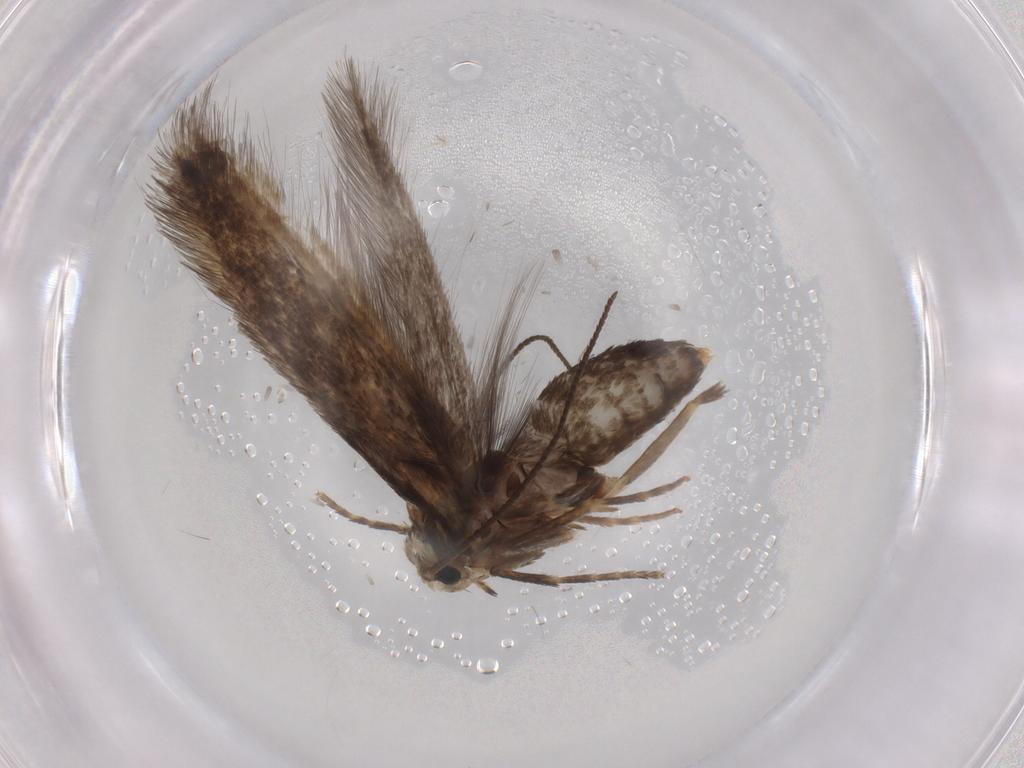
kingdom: Animalia
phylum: Arthropoda
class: Insecta
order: Lepidoptera
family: Nepticulidae
